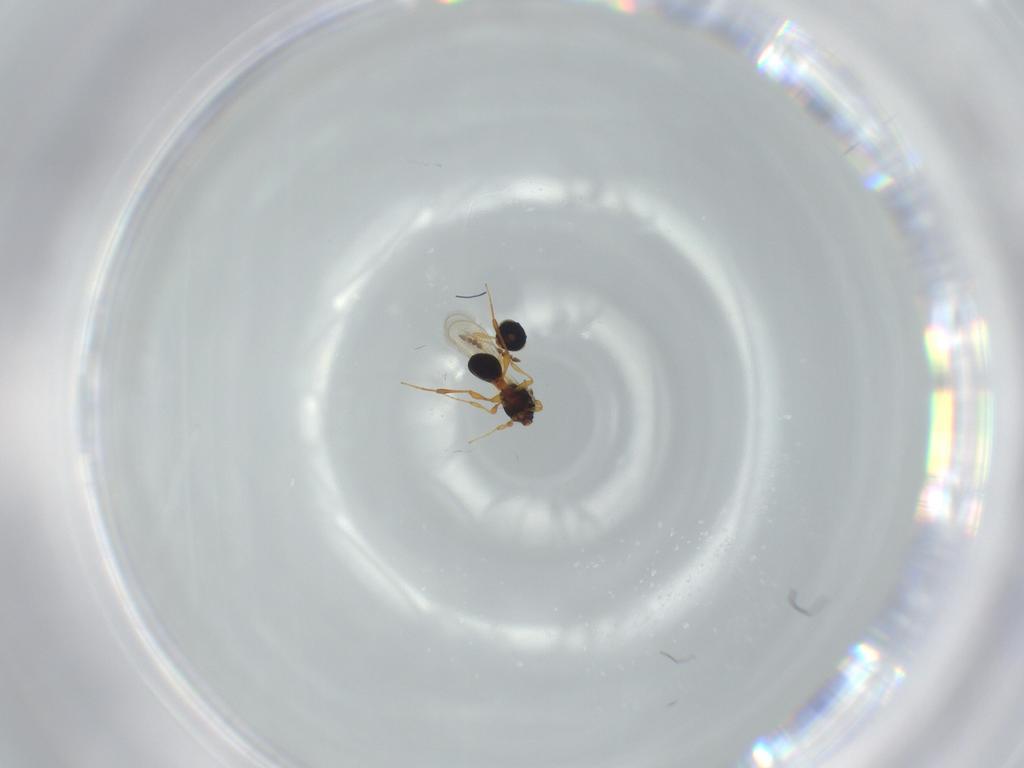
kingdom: Animalia
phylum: Arthropoda
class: Insecta
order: Hymenoptera
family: Platygastridae
